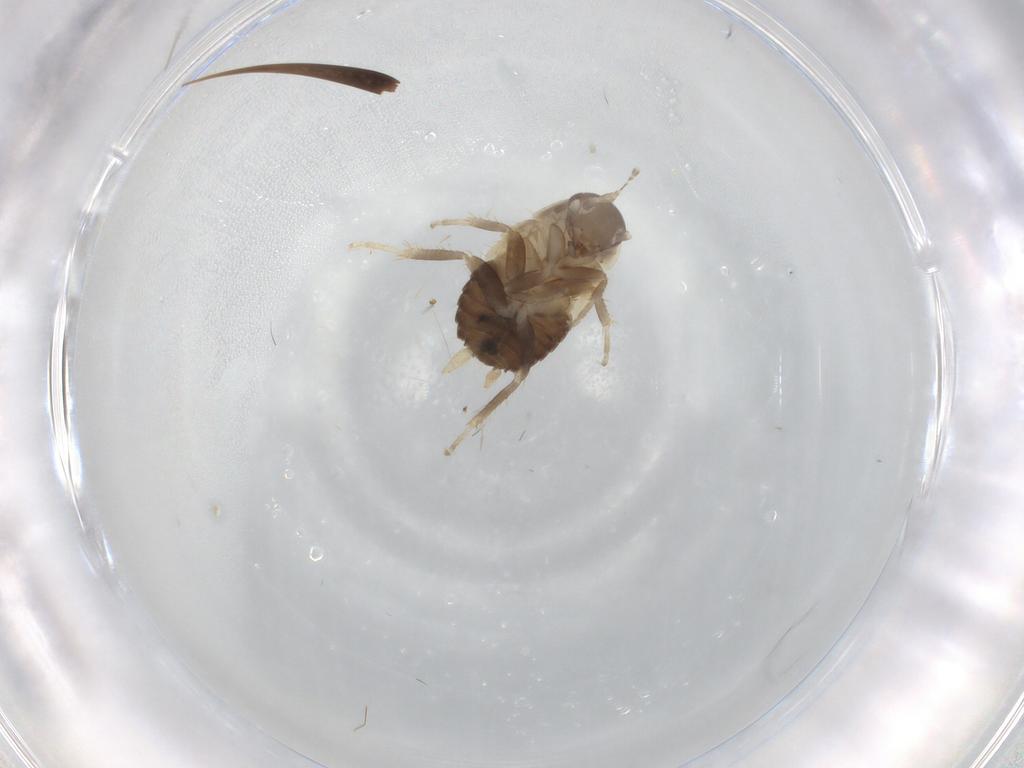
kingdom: Animalia
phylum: Arthropoda
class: Insecta
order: Blattodea
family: Ectobiidae
